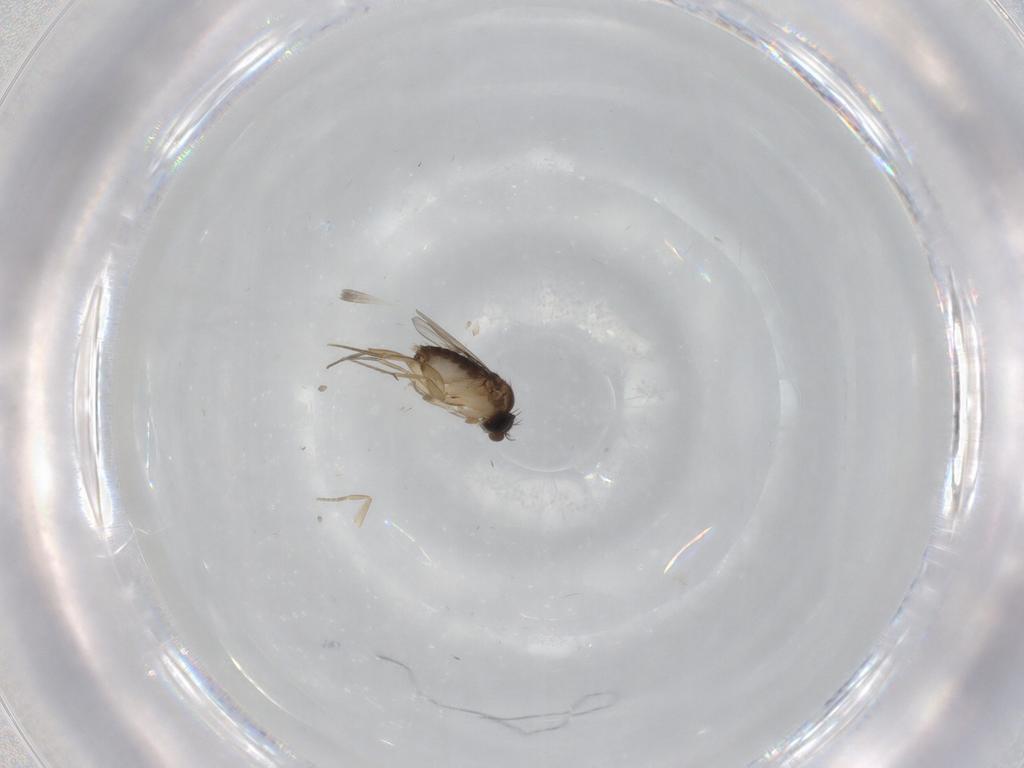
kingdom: Animalia
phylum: Arthropoda
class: Insecta
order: Diptera
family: Phoridae
